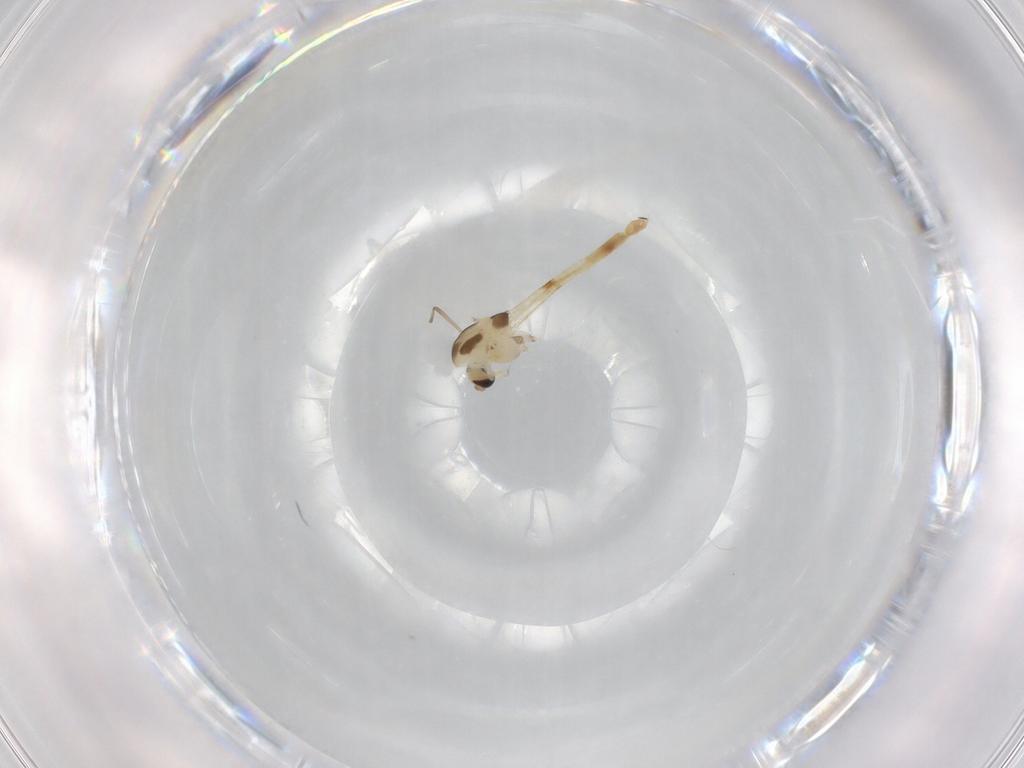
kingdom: Animalia
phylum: Arthropoda
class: Insecta
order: Diptera
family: Chironomidae
